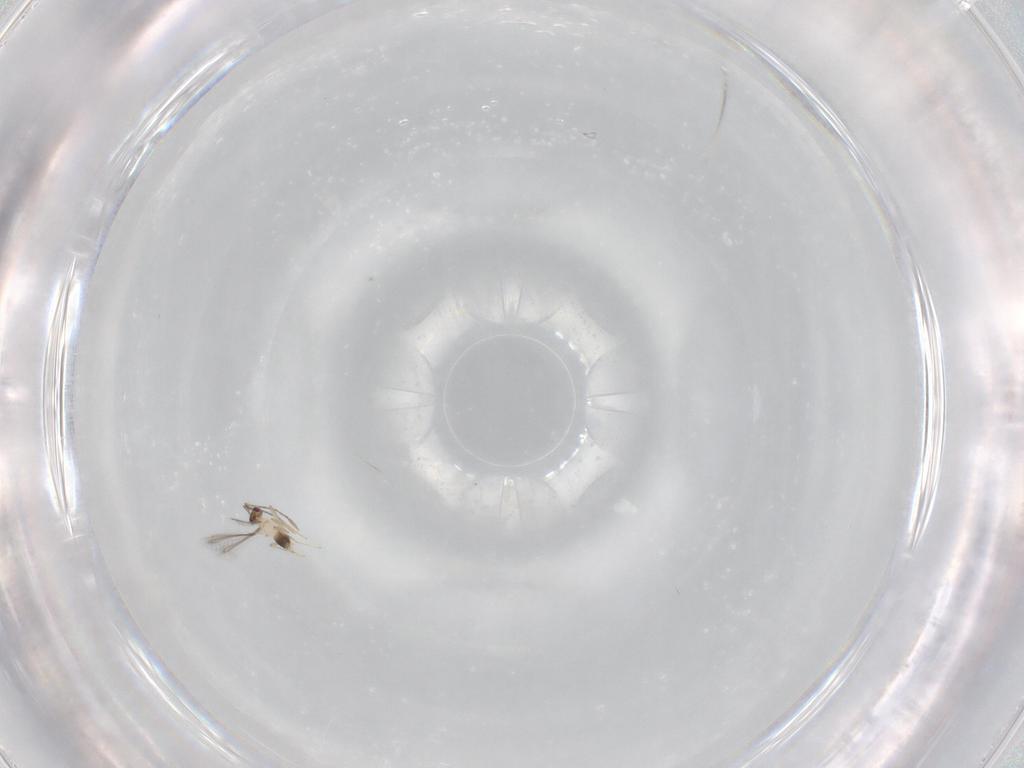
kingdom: Animalia
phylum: Arthropoda
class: Insecta
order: Hymenoptera
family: Mymaridae
